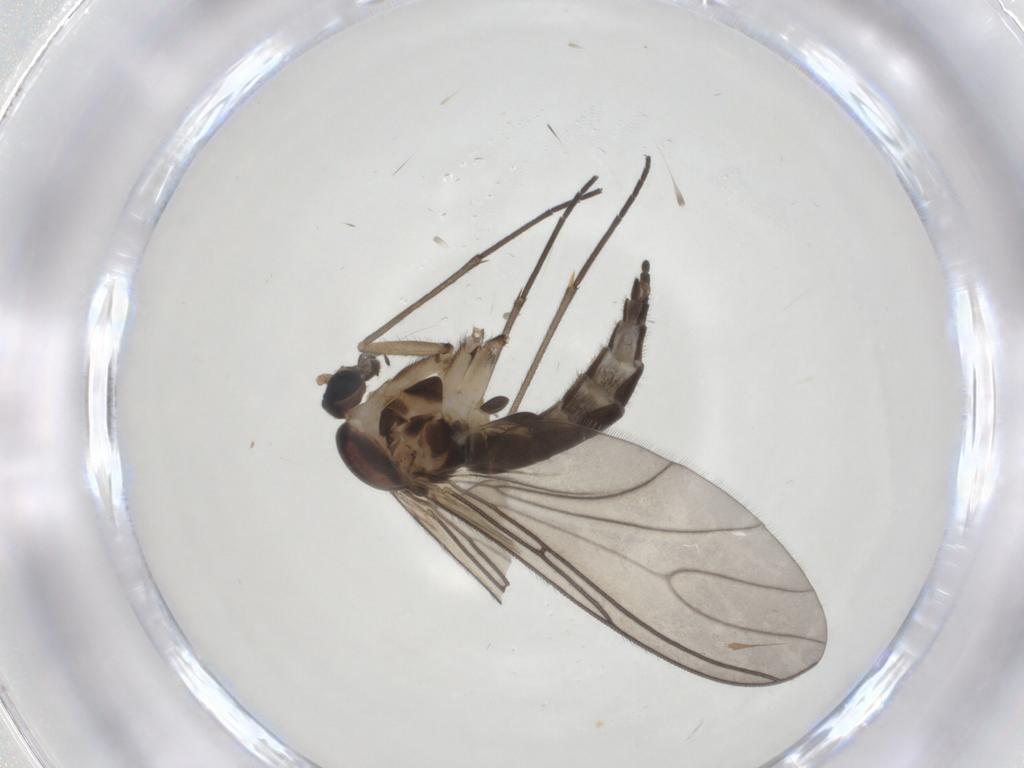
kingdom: Animalia
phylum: Arthropoda
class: Insecta
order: Diptera
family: Sciaridae
